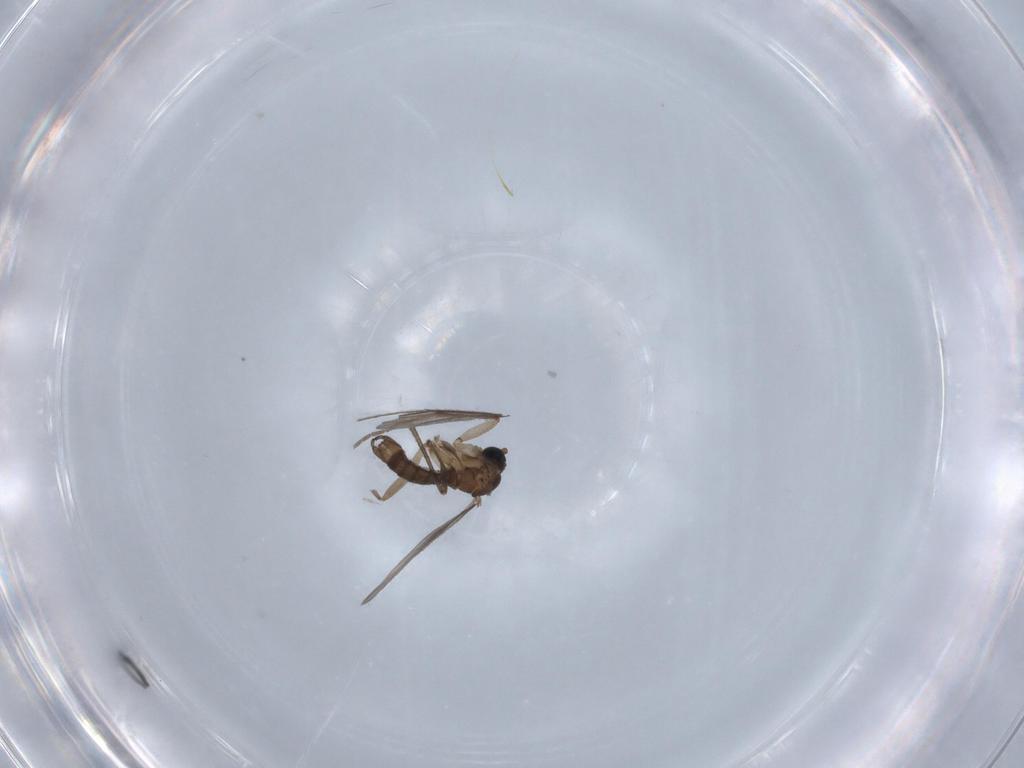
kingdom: Animalia
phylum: Arthropoda
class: Insecta
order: Diptera
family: Sciaridae
